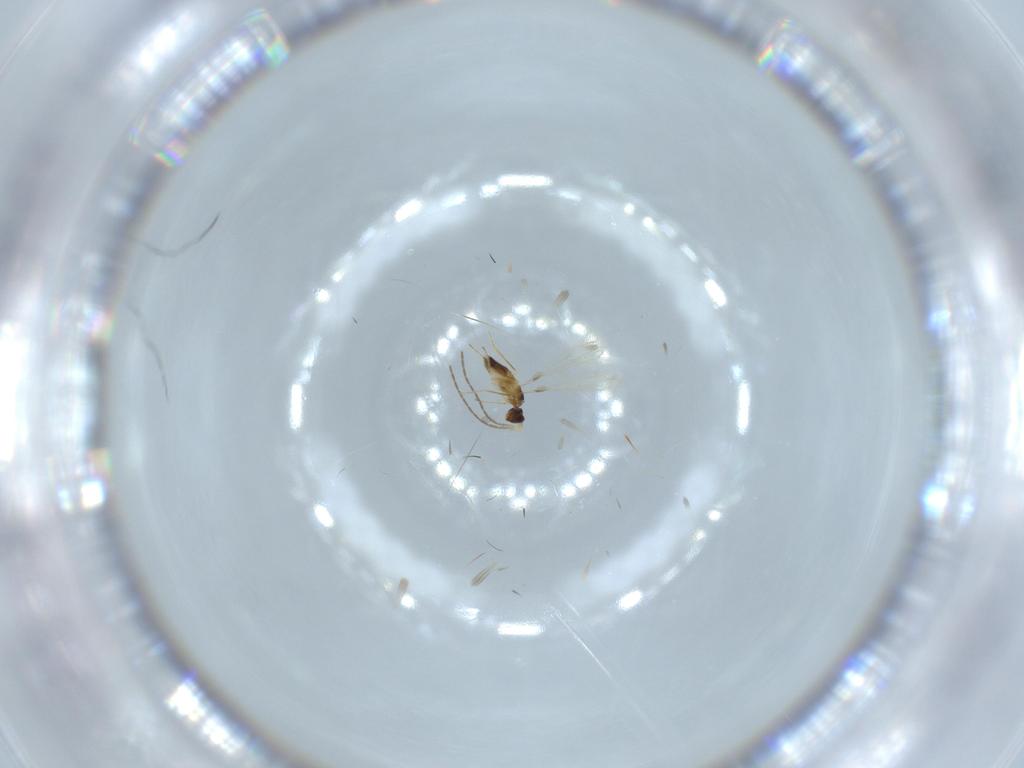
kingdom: Animalia
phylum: Arthropoda
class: Insecta
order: Hymenoptera
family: Mymaridae
